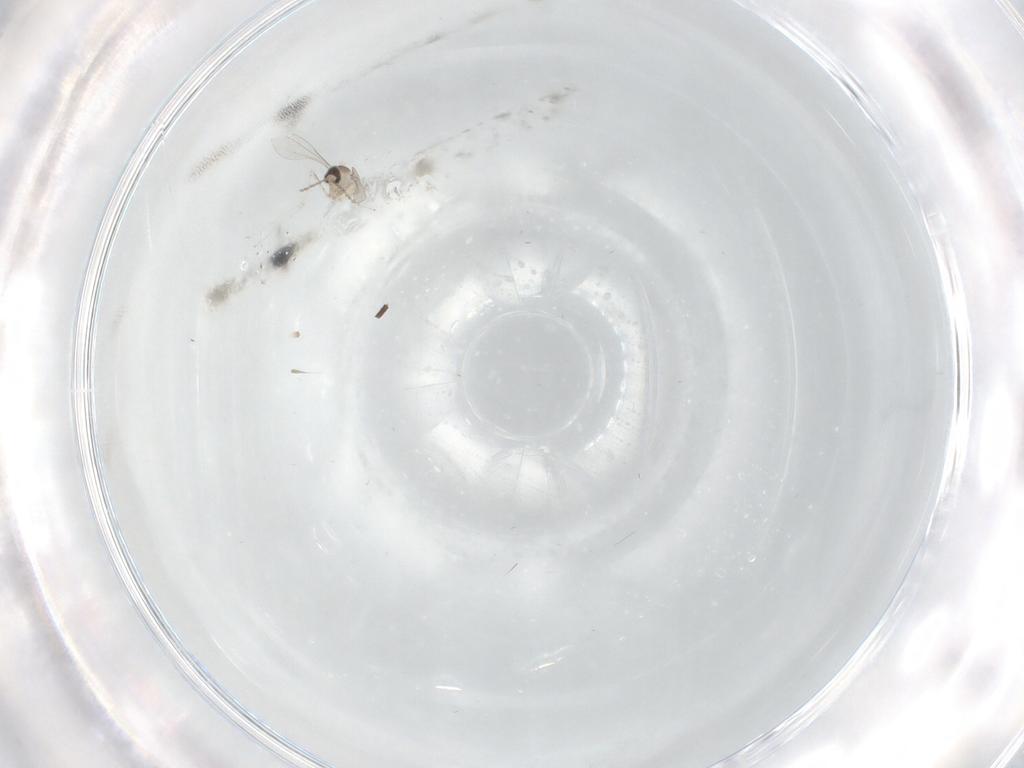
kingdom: Animalia
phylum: Arthropoda
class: Insecta
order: Diptera
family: Cecidomyiidae
